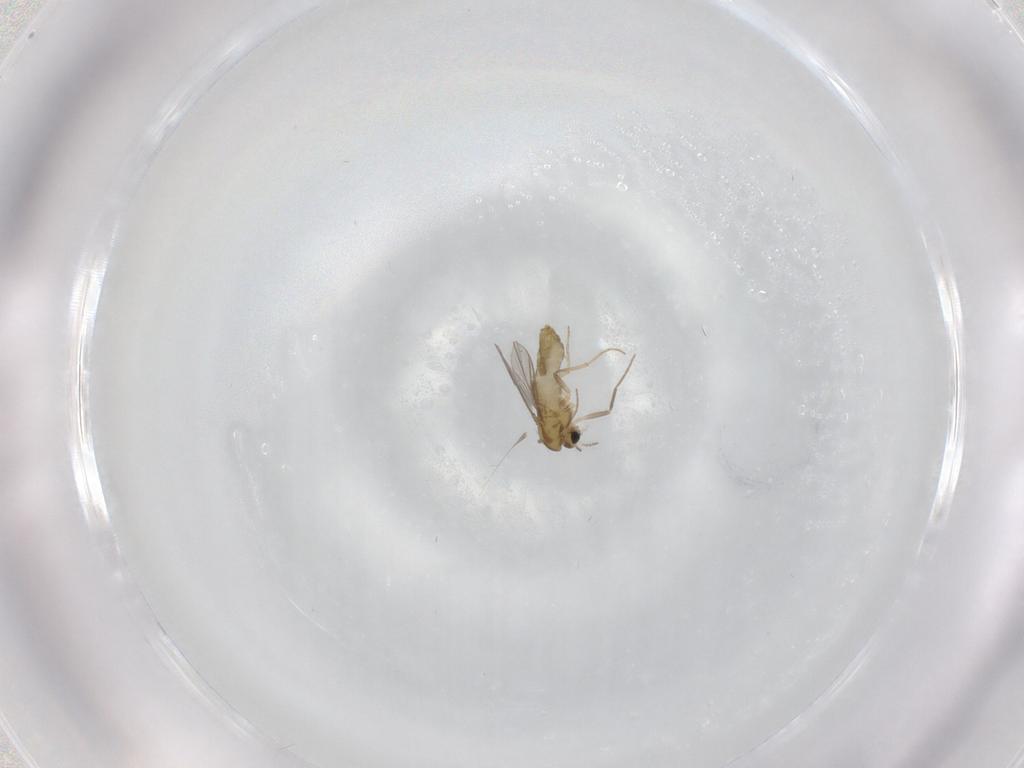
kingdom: Animalia
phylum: Arthropoda
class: Insecta
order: Diptera
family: Chironomidae
